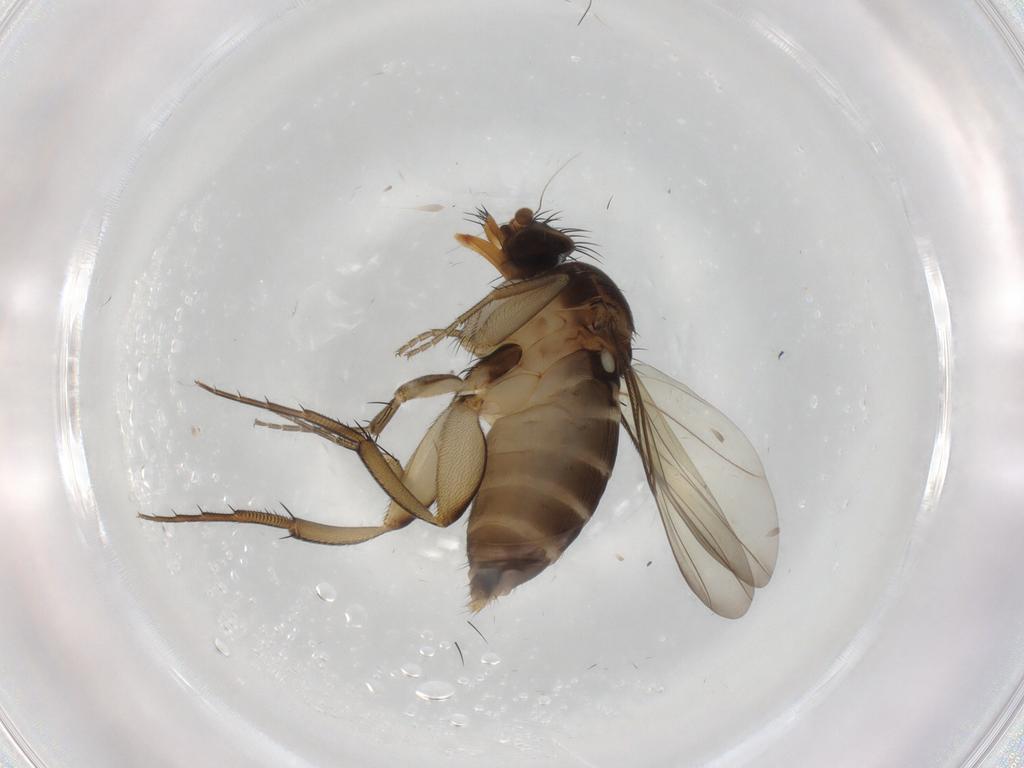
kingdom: Animalia
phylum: Arthropoda
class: Insecta
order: Diptera
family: Phoridae
